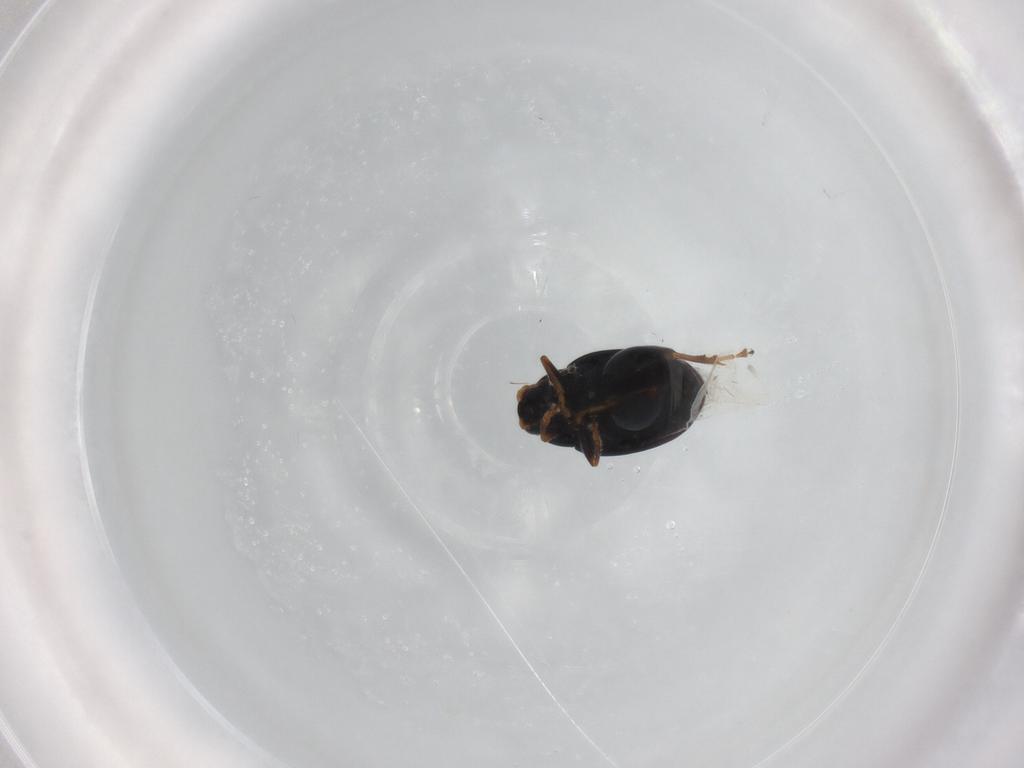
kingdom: Animalia
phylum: Arthropoda
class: Insecta
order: Coleoptera
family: Chrysomelidae
